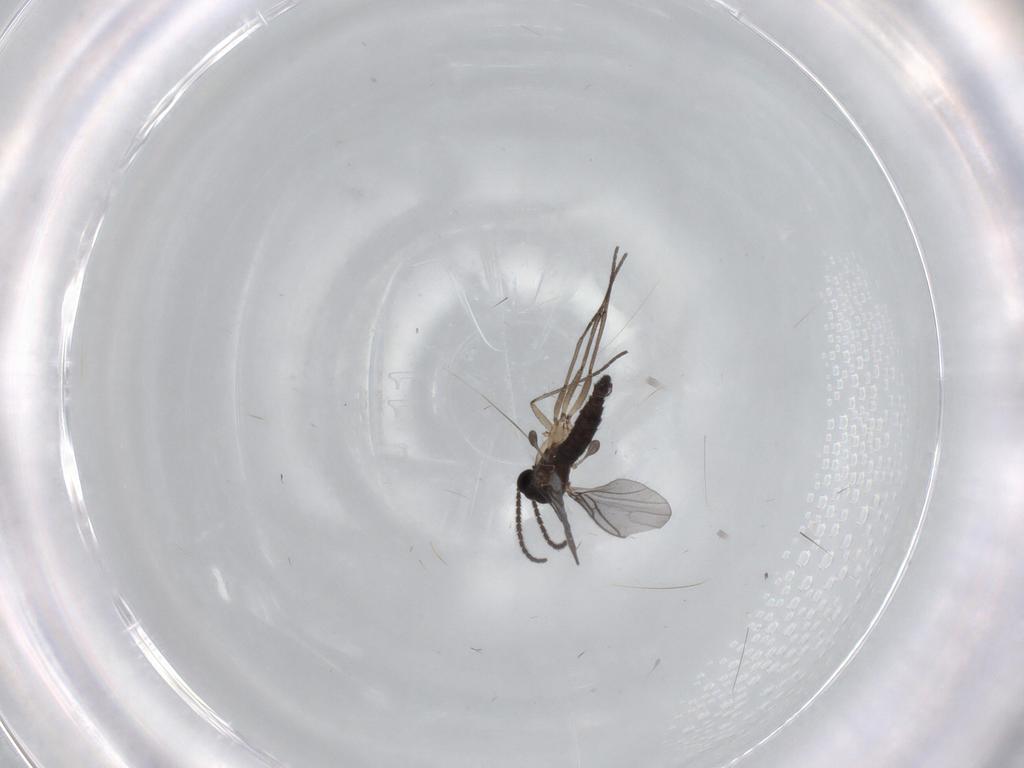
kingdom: Animalia
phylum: Arthropoda
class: Insecta
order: Diptera
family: Sciaridae
